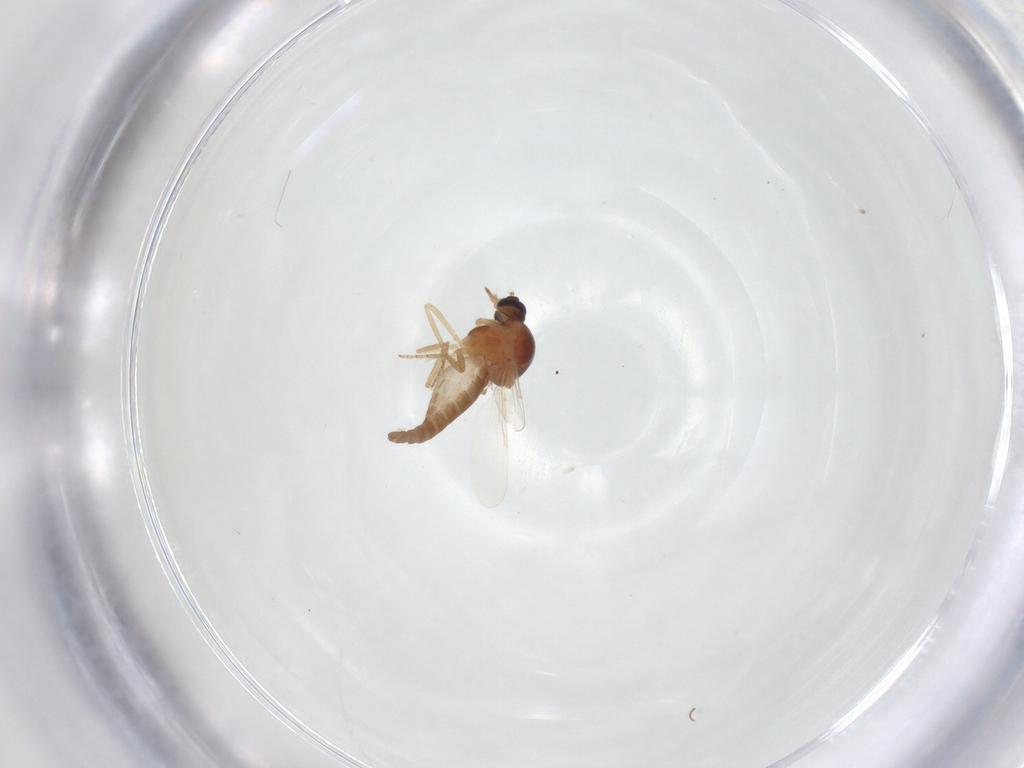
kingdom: Animalia
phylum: Arthropoda
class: Insecta
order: Diptera
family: Ceratopogonidae
